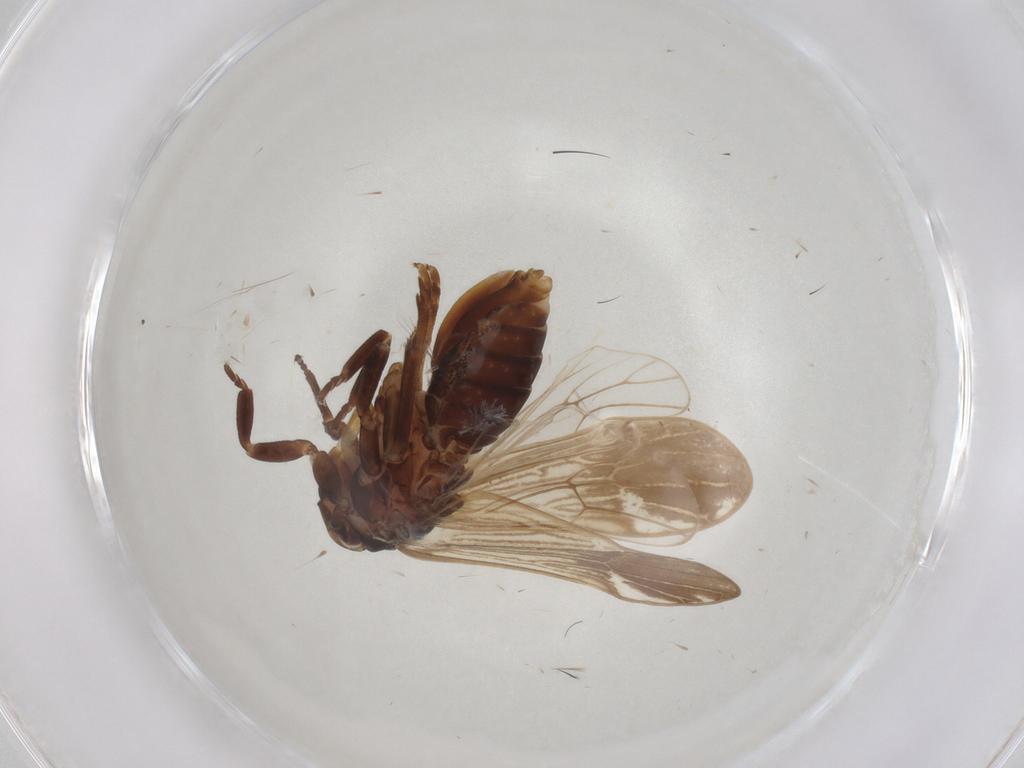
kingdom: Animalia
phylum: Arthropoda
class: Insecta
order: Hemiptera
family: Delphacidae
